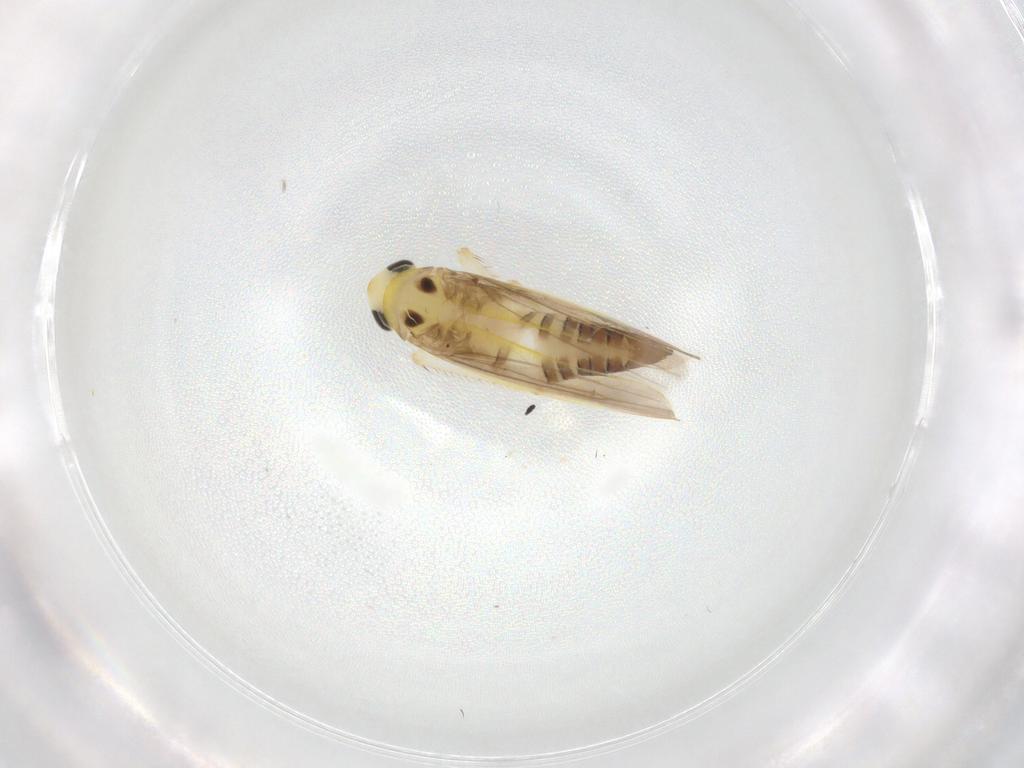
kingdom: Animalia
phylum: Arthropoda
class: Insecta
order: Hemiptera
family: Cicadellidae
